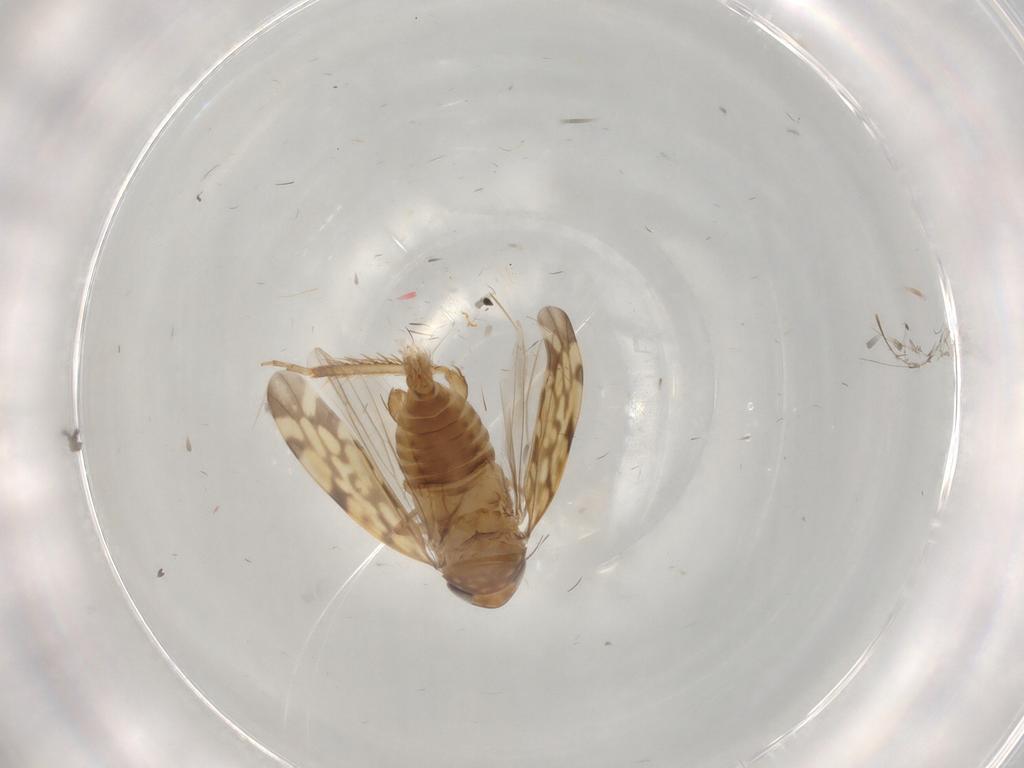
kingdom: Animalia
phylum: Arthropoda
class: Insecta
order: Hemiptera
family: Cicadellidae
